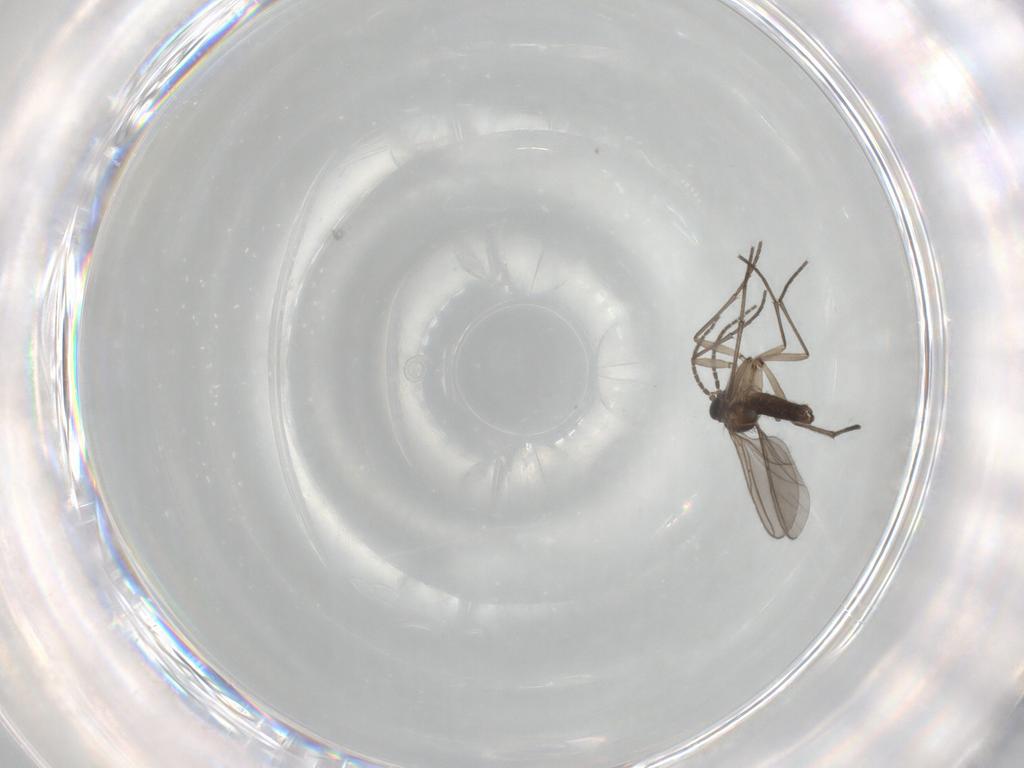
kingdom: Animalia
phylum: Arthropoda
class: Insecta
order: Diptera
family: Sciaridae
